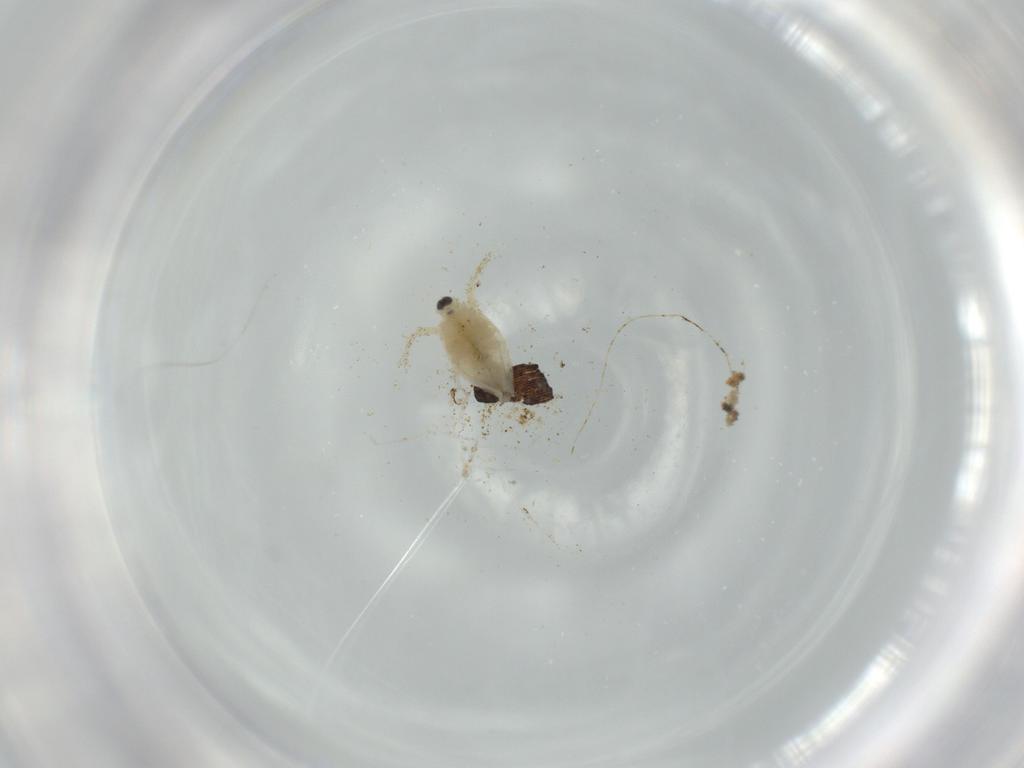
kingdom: Animalia
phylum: Arthropoda
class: Insecta
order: Diptera
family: Empididae
